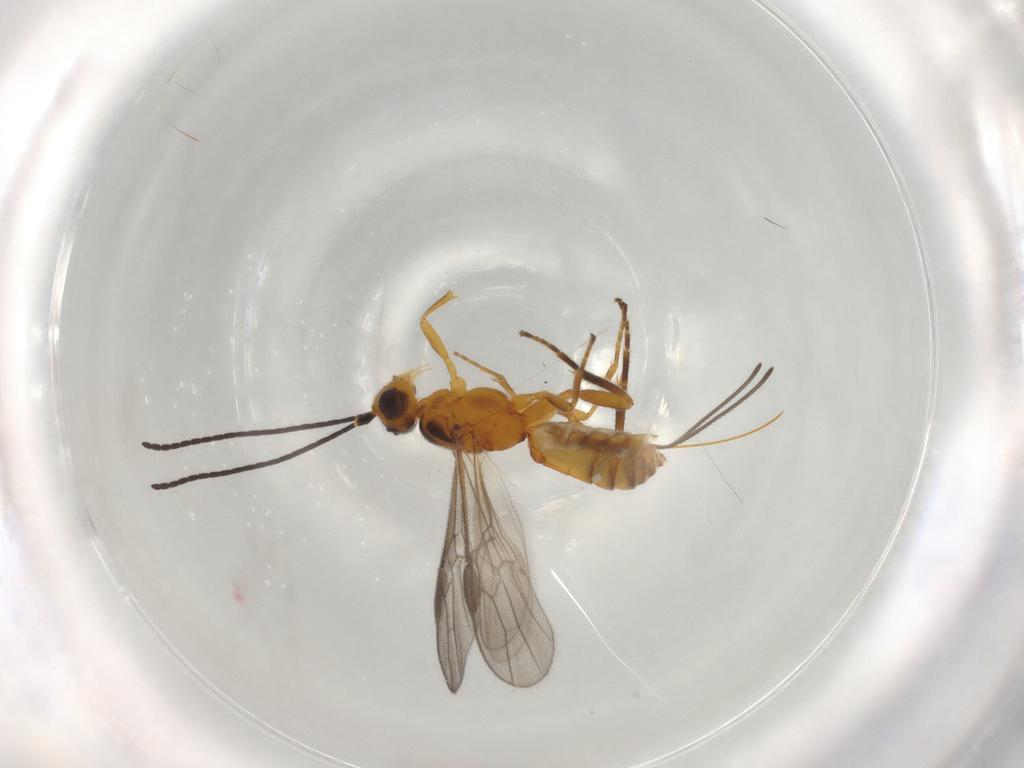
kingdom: Animalia
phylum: Arthropoda
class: Insecta
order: Hymenoptera
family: Braconidae
